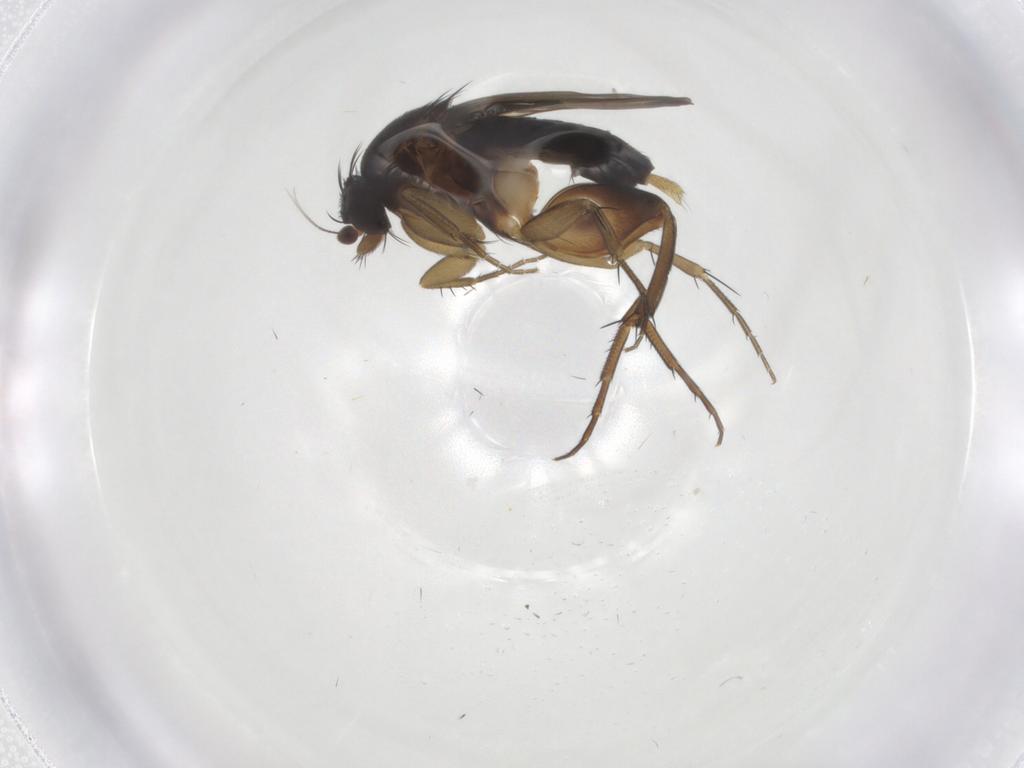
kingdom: Animalia
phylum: Arthropoda
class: Insecta
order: Diptera
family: Phoridae
